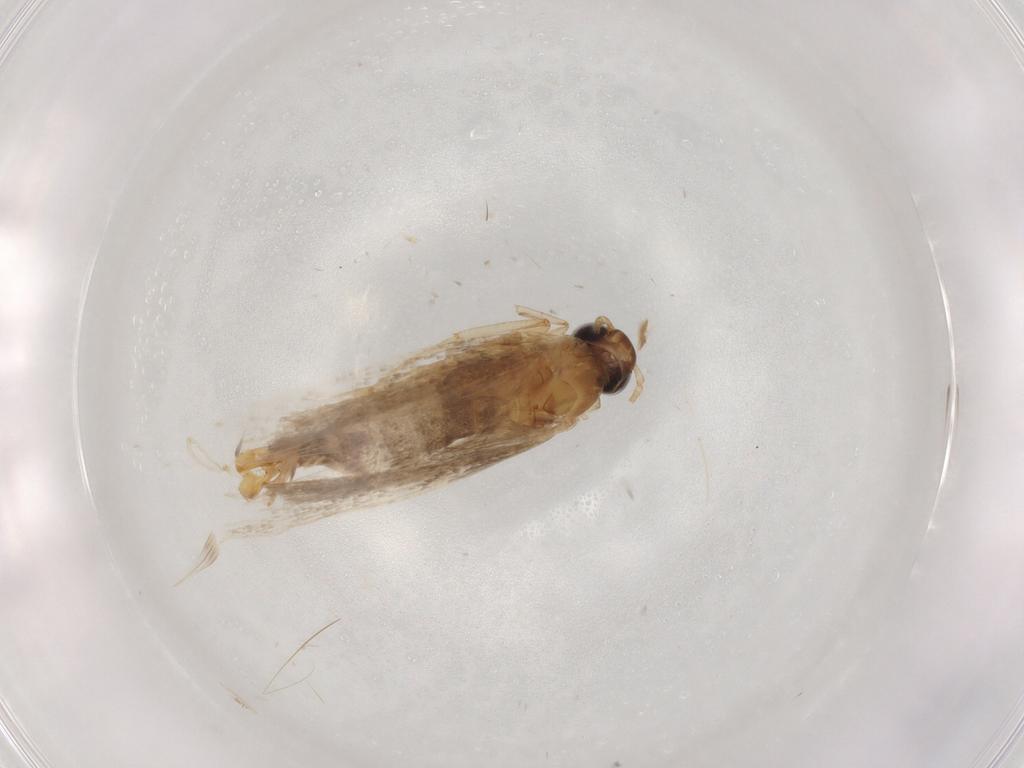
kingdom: Animalia
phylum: Arthropoda
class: Insecta
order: Lepidoptera
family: Plutellidae
